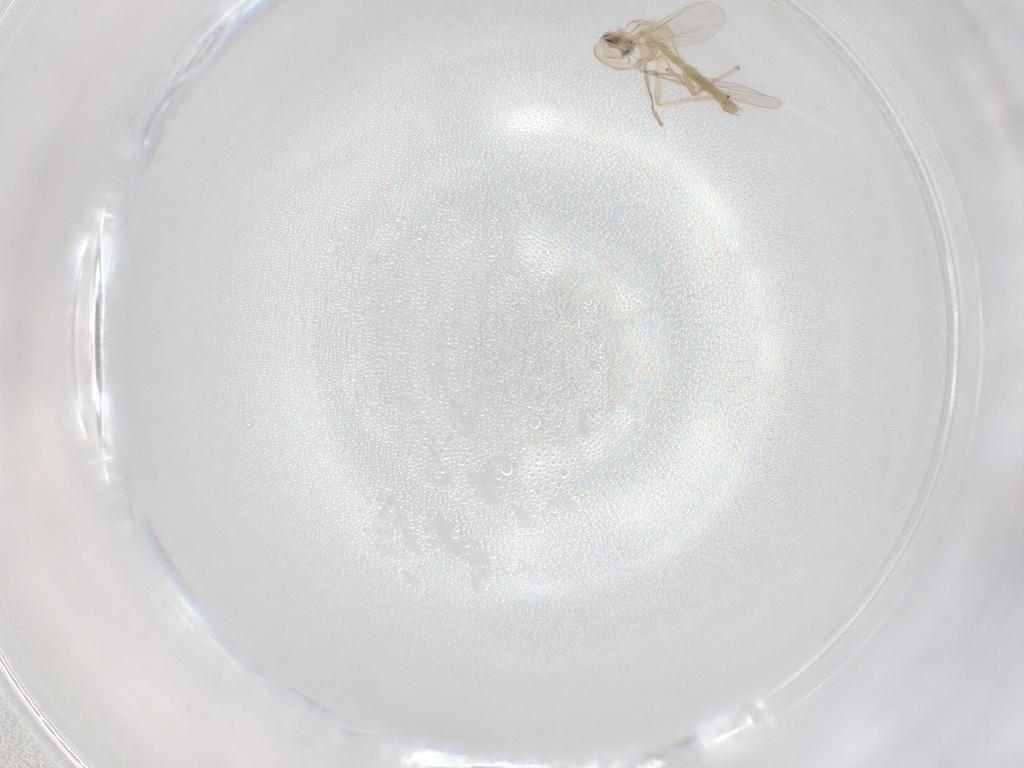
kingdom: Animalia
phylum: Arthropoda
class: Insecta
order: Diptera
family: Chironomidae
